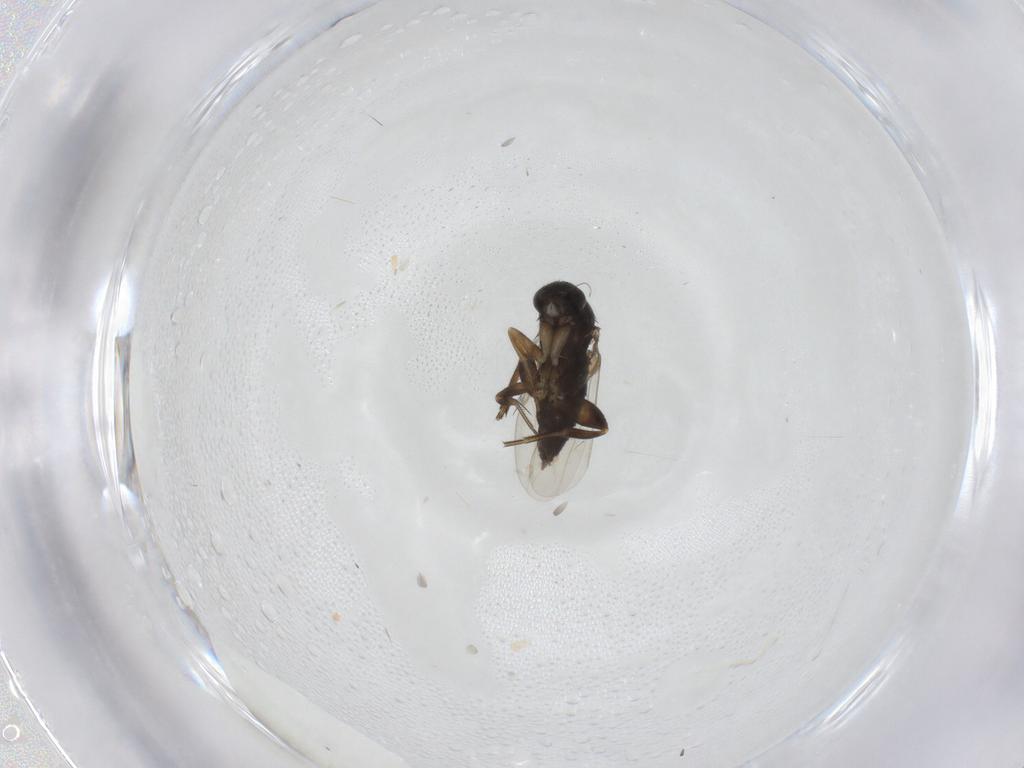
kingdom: Animalia
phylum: Arthropoda
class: Insecta
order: Diptera
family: Phoridae
